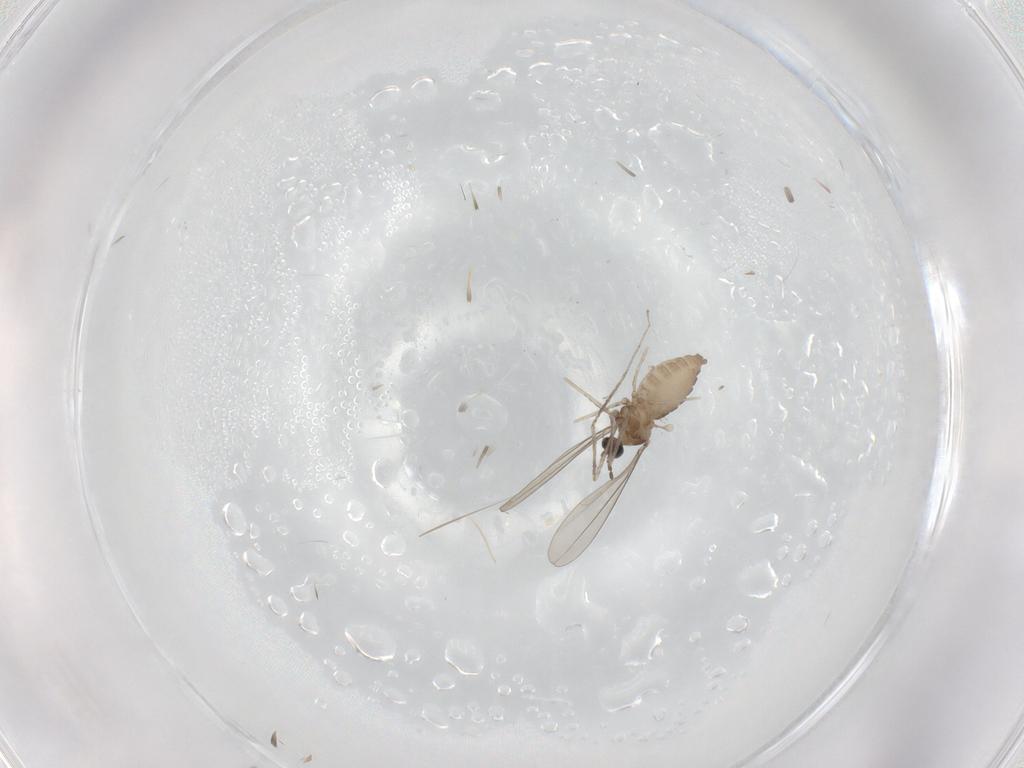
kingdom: Animalia
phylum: Arthropoda
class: Insecta
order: Diptera
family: Cecidomyiidae
